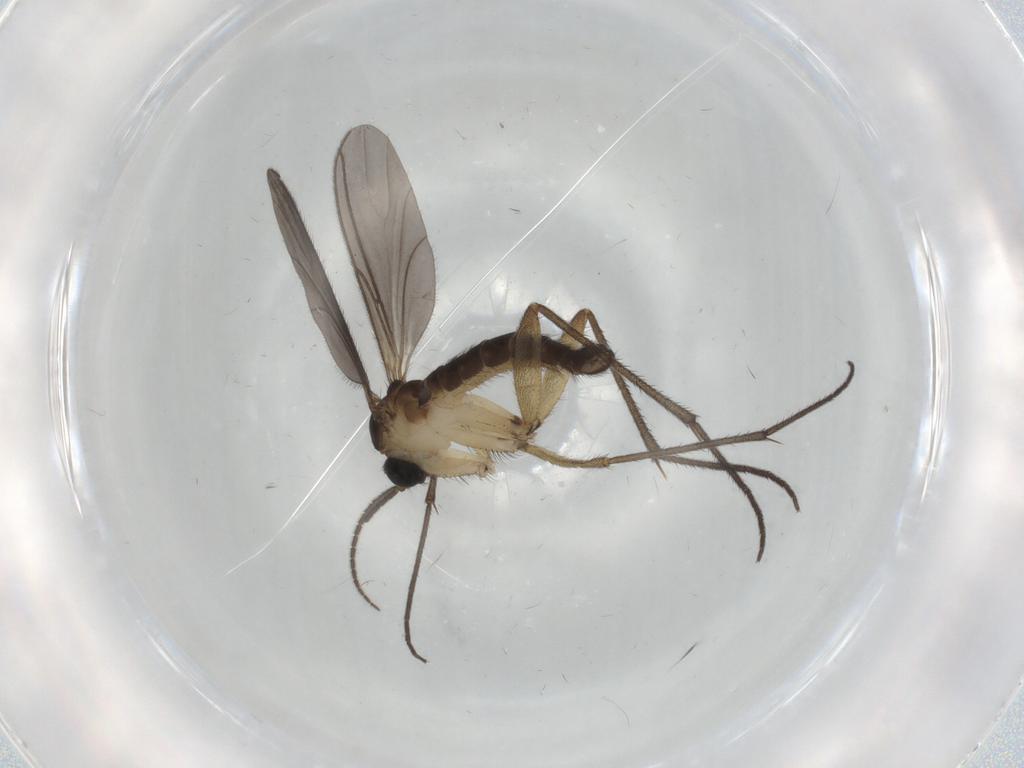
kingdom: Animalia
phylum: Arthropoda
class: Insecta
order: Diptera
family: Sciaridae
